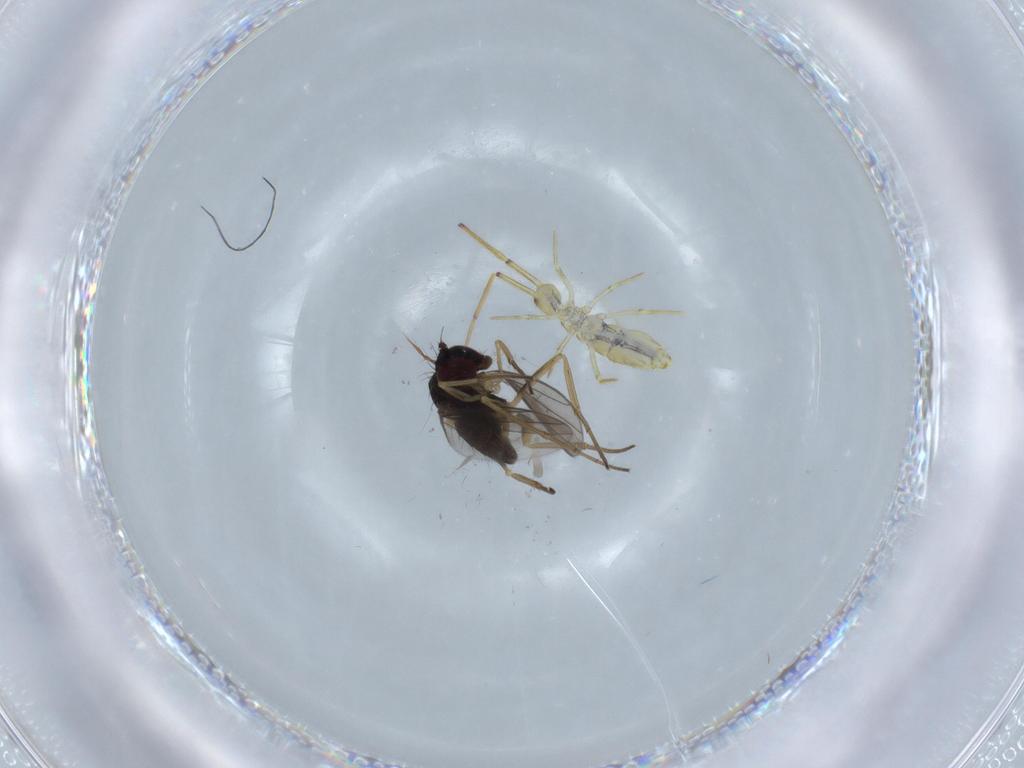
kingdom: Animalia
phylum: Arthropoda
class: Insecta
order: Diptera
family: Dolichopodidae
